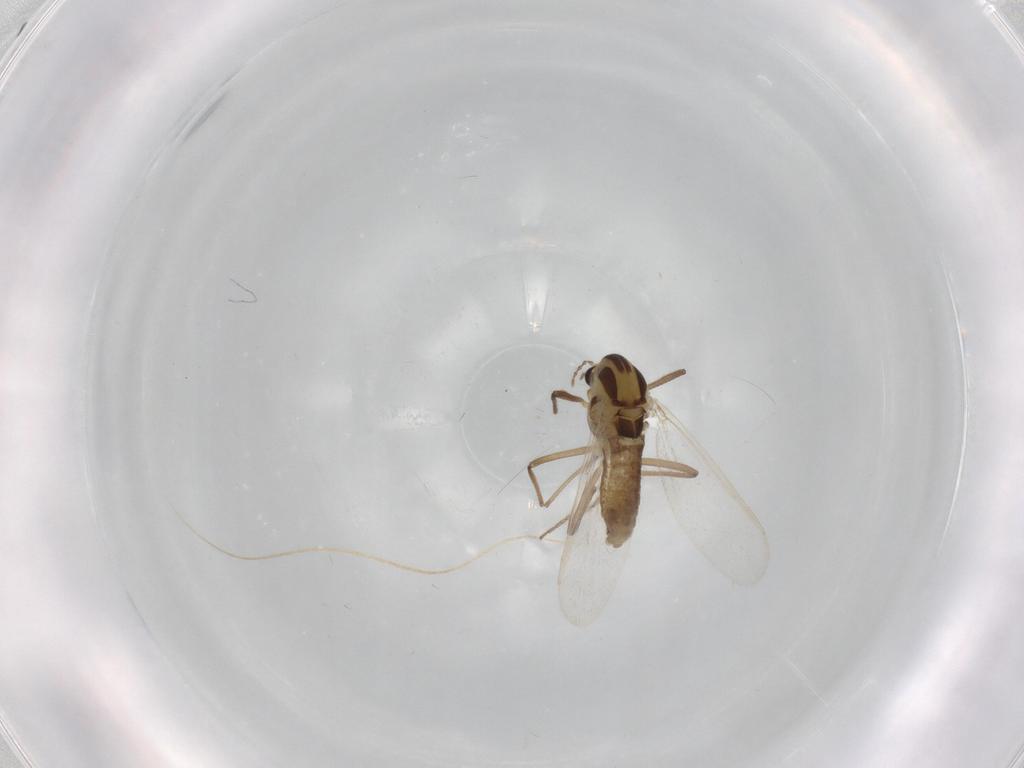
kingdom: Animalia
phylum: Arthropoda
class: Insecta
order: Diptera
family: Chironomidae
